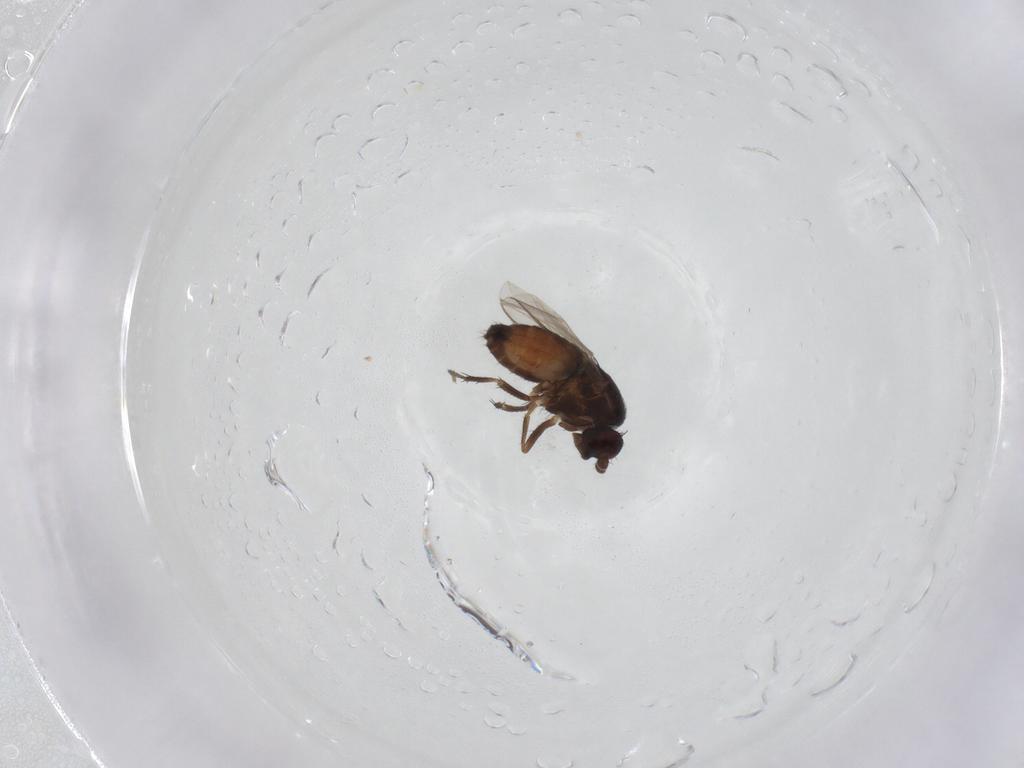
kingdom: Animalia
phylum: Arthropoda
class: Insecta
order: Diptera
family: Sphaeroceridae
